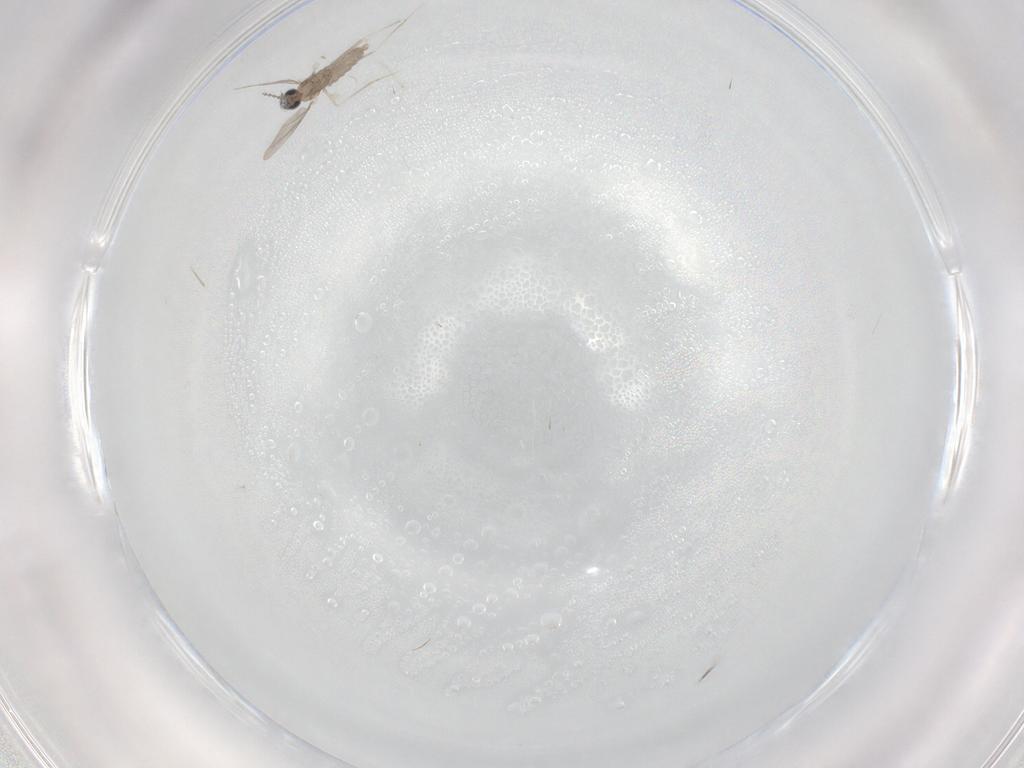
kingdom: Animalia
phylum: Arthropoda
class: Insecta
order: Diptera
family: Cecidomyiidae
